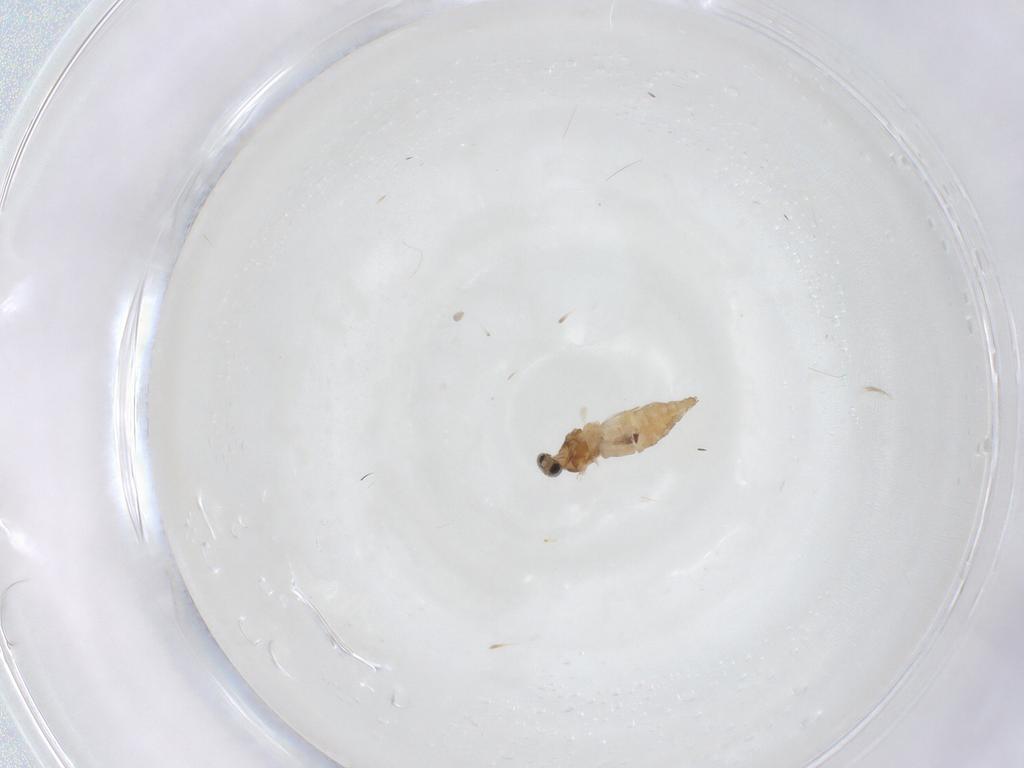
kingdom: Animalia
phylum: Arthropoda
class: Insecta
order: Diptera
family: Cecidomyiidae
